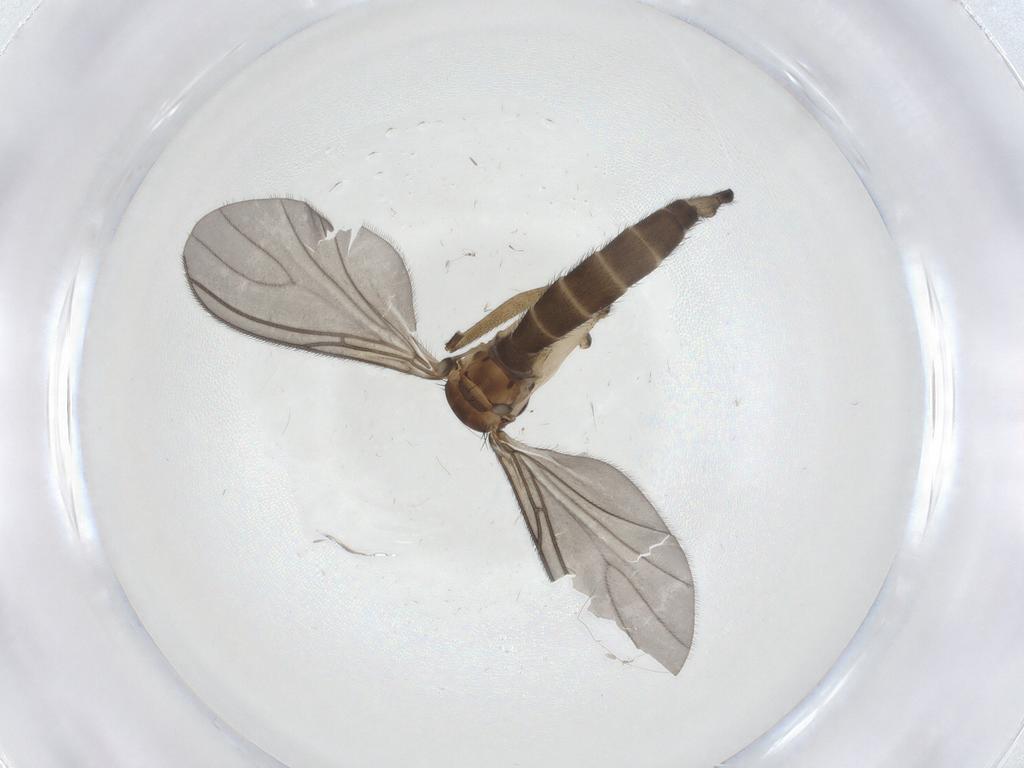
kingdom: Animalia
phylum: Arthropoda
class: Insecta
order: Diptera
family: Sciaridae
